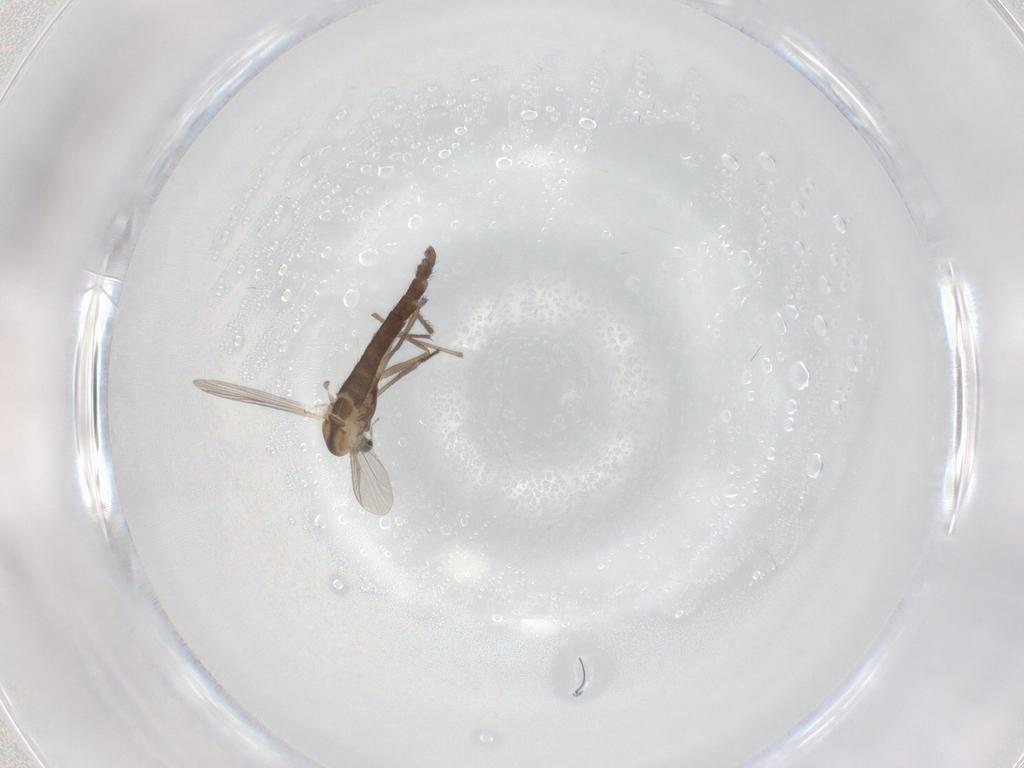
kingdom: Animalia
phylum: Arthropoda
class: Insecta
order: Diptera
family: Chironomidae
